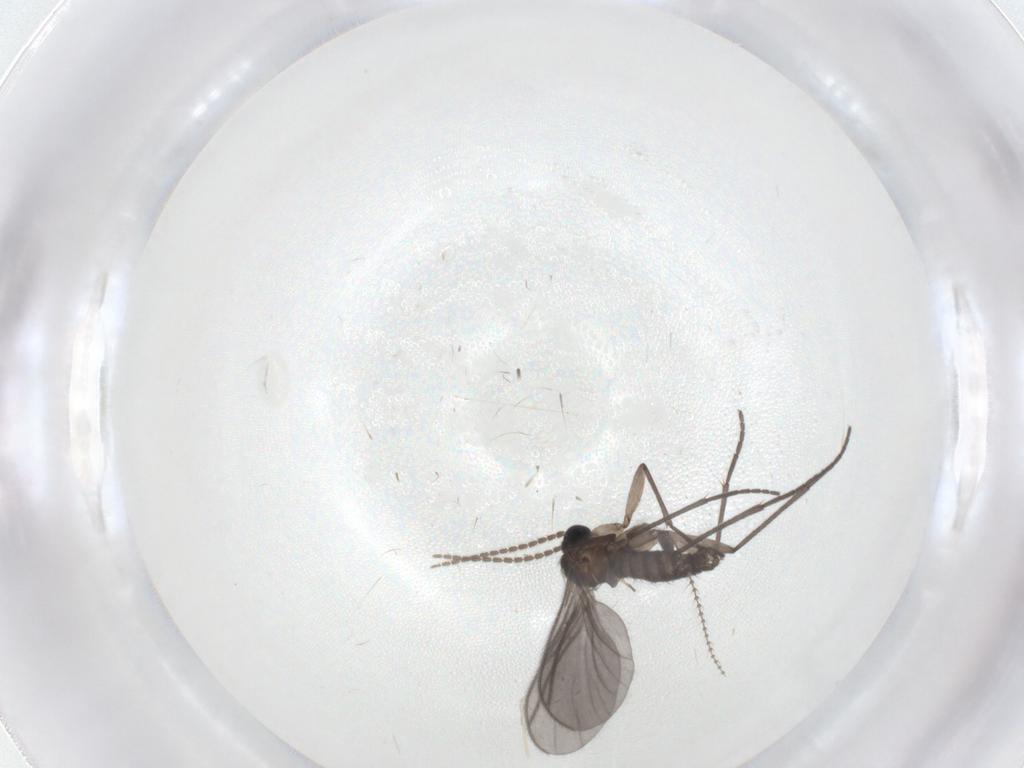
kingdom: Animalia
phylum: Arthropoda
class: Insecta
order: Diptera
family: Sciaridae
